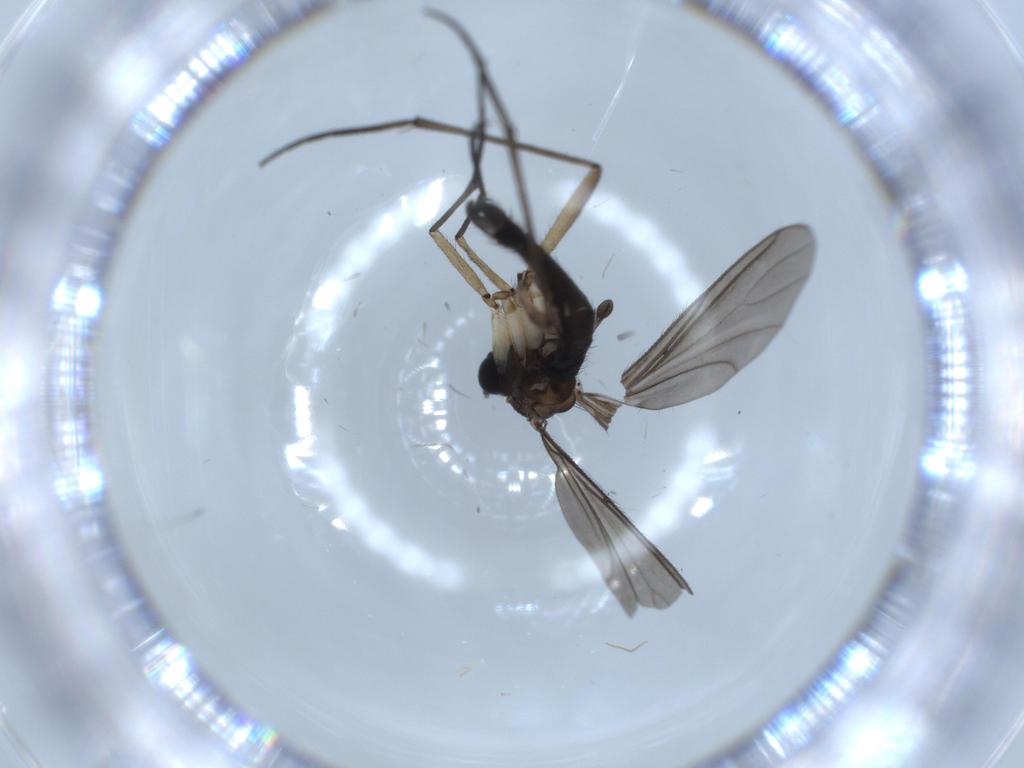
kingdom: Animalia
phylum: Arthropoda
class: Insecta
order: Diptera
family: Sciaridae
